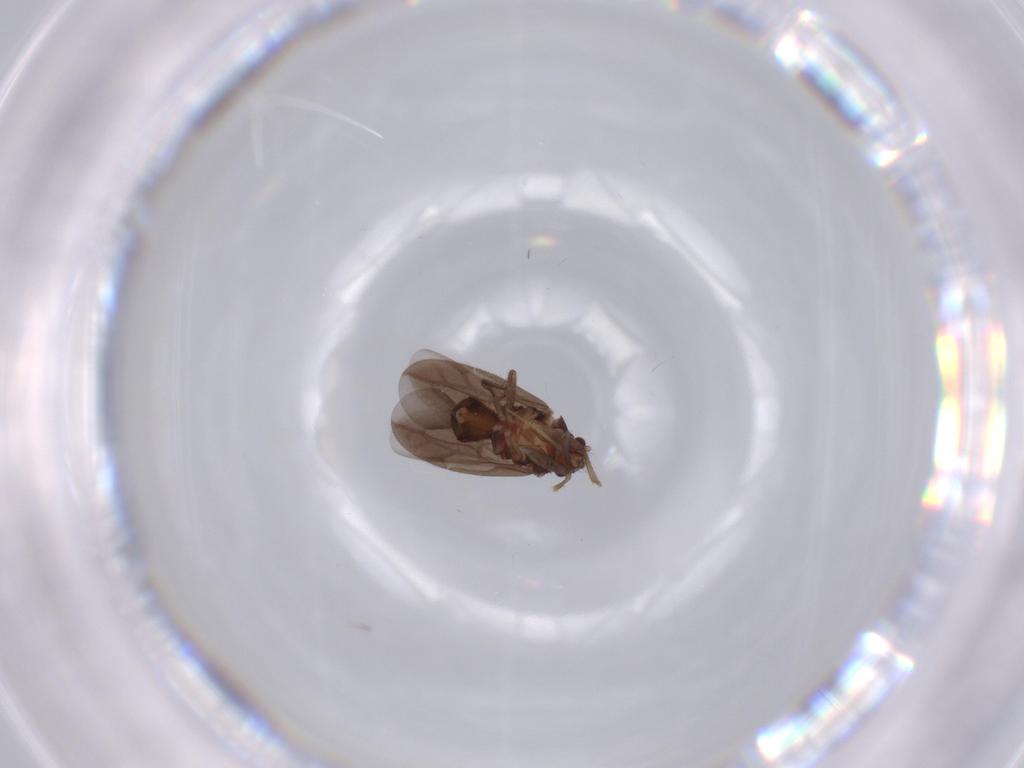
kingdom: Animalia
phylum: Arthropoda
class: Insecta
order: Hemiptera
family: Ceratocombidae
